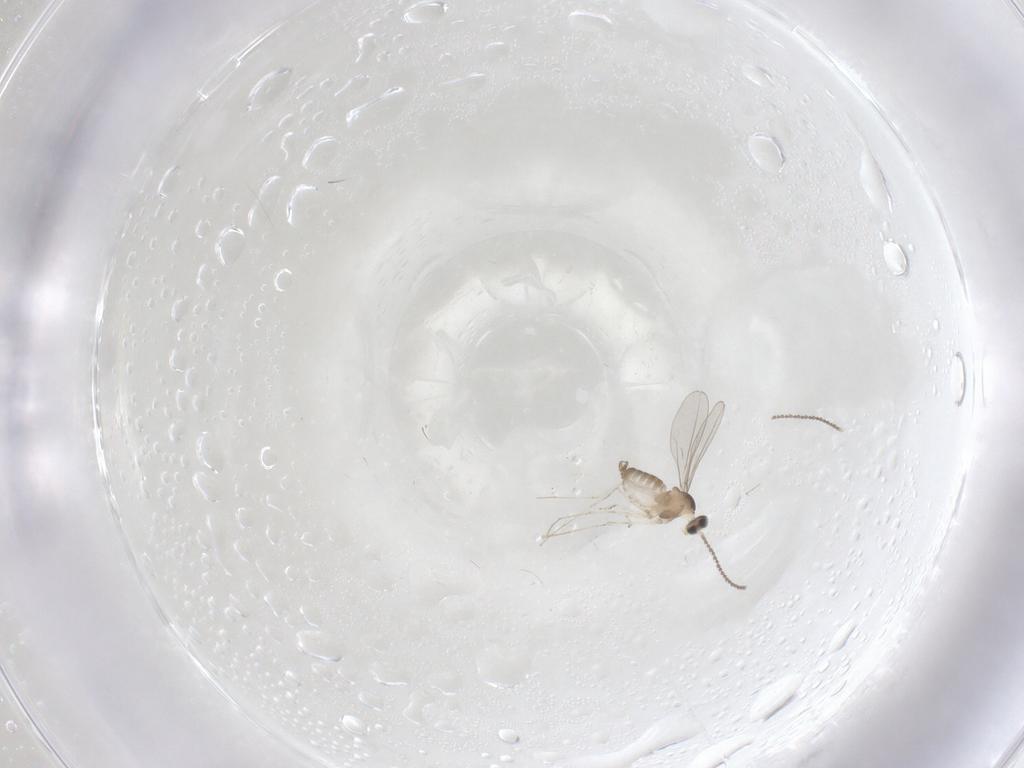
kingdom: Animalia
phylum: Arthropoda
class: Insecta
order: Diptera
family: Cecidomyiidae
